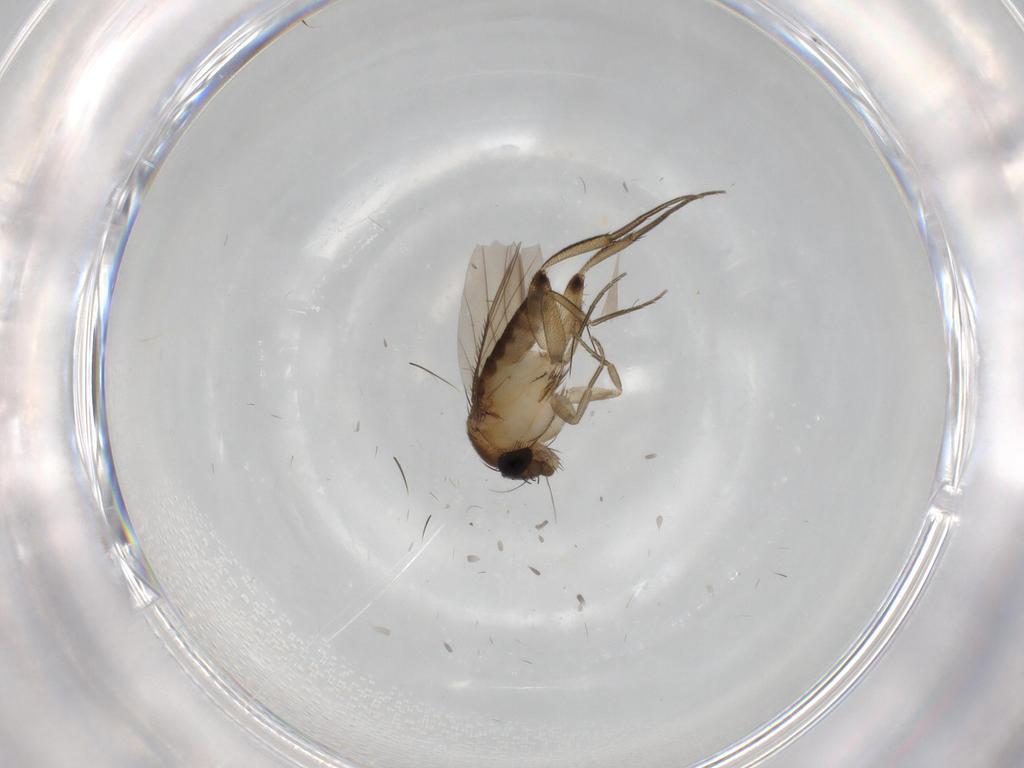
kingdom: Animalia
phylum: Arthropoda
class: Insecta
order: Diptera
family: Phoridae
